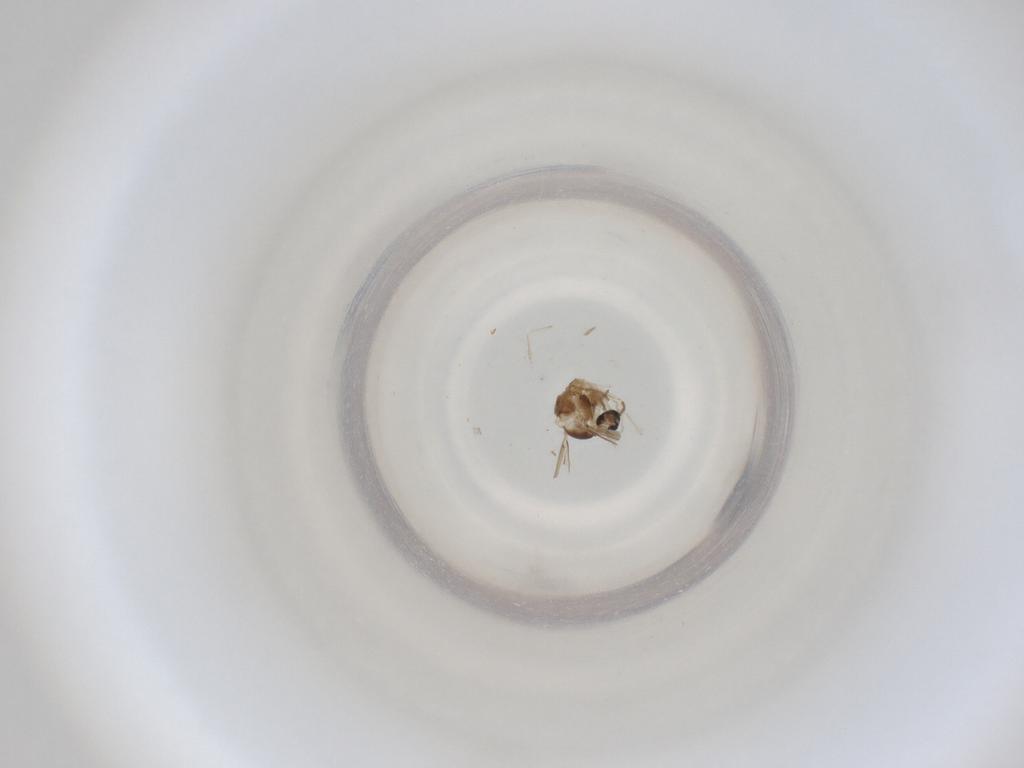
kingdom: Animalia
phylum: Arthropoda
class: Insecta
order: Diptera
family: Cecidomyiidae
